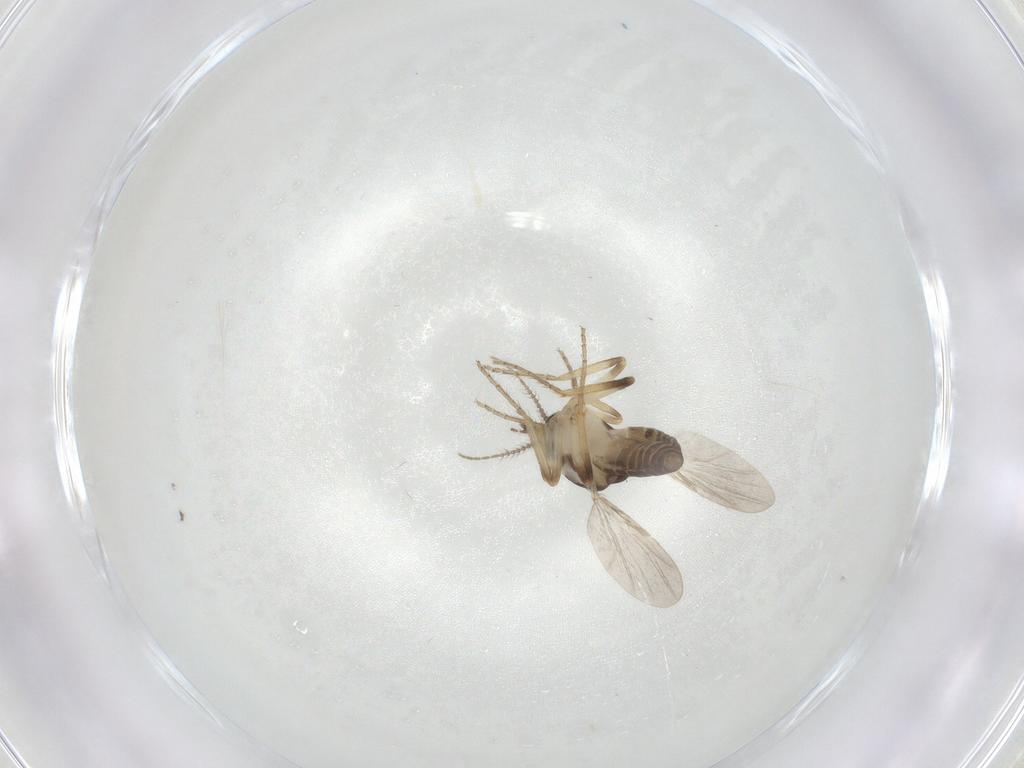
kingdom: Animalia
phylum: Arthropoda
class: Insecta
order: Diptera
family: Ceratopogonidae
